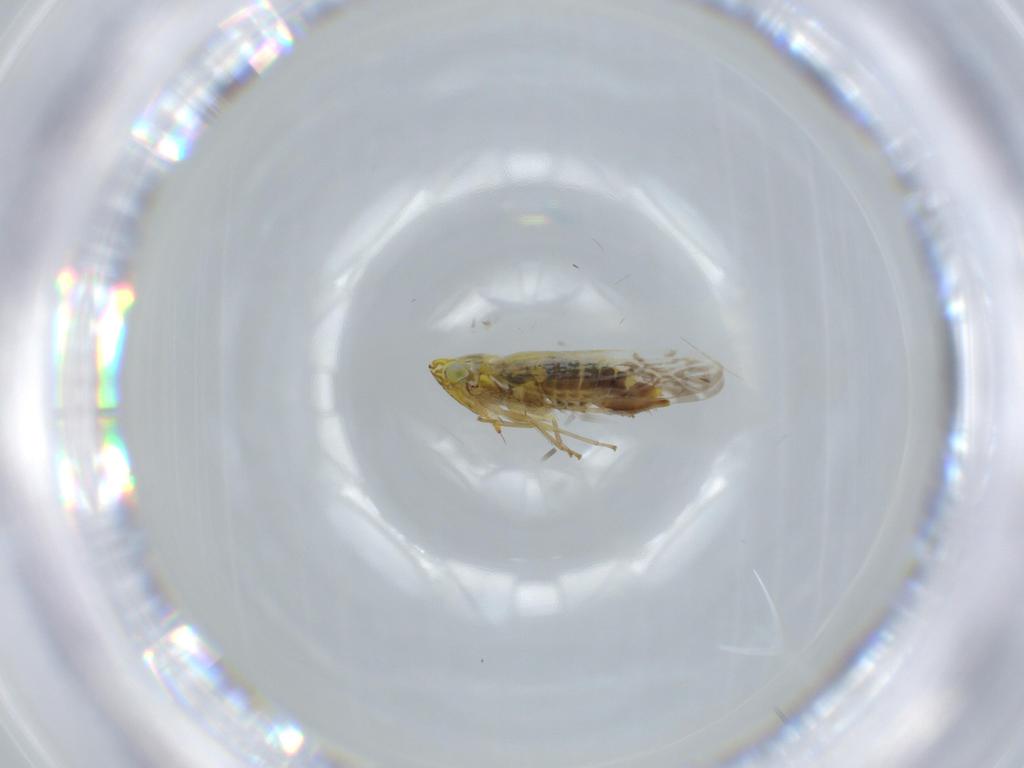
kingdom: Animalia
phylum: Arthropoda
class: Insecta
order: Hemiptera
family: Cicadellidae
